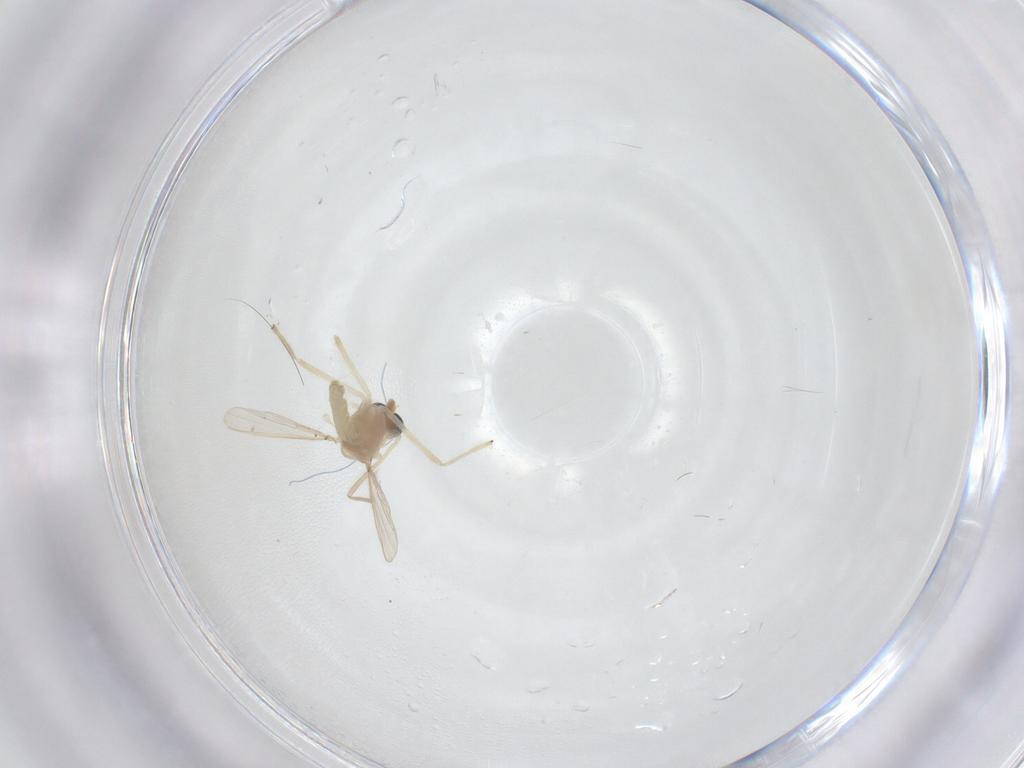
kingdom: Animalia
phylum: Arthropoda
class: Insecta
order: Diptera
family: Chironomidae
